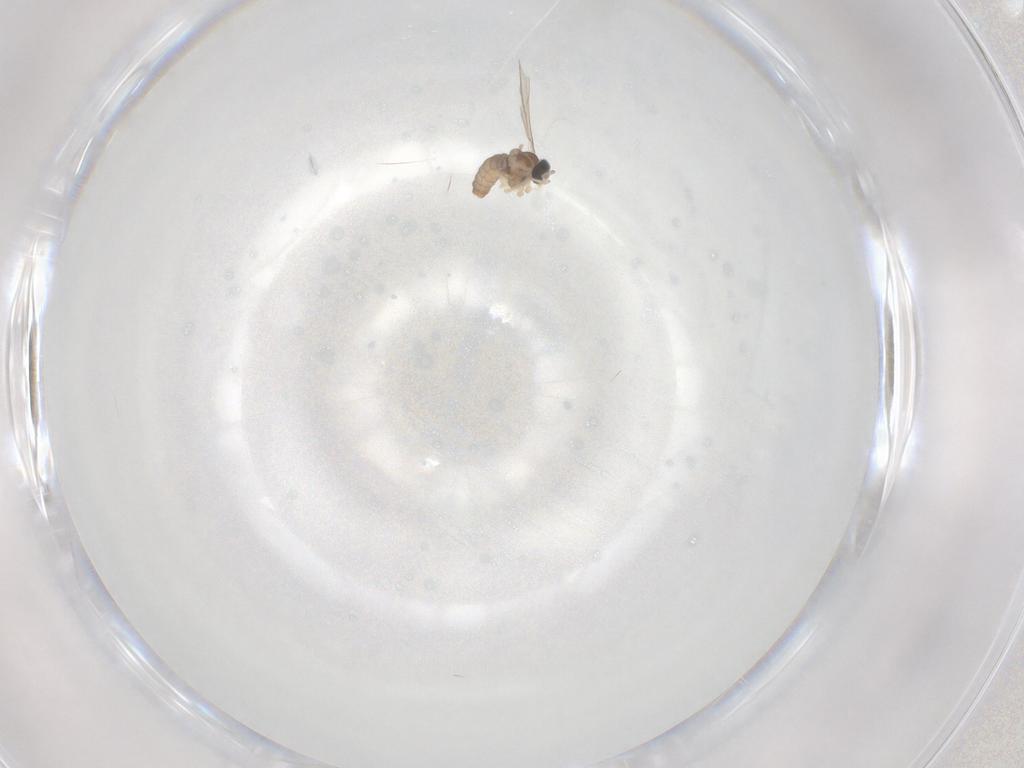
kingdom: Animalia
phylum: Arthropoda
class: Insecta
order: Diptera
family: Cecidomyiidae
